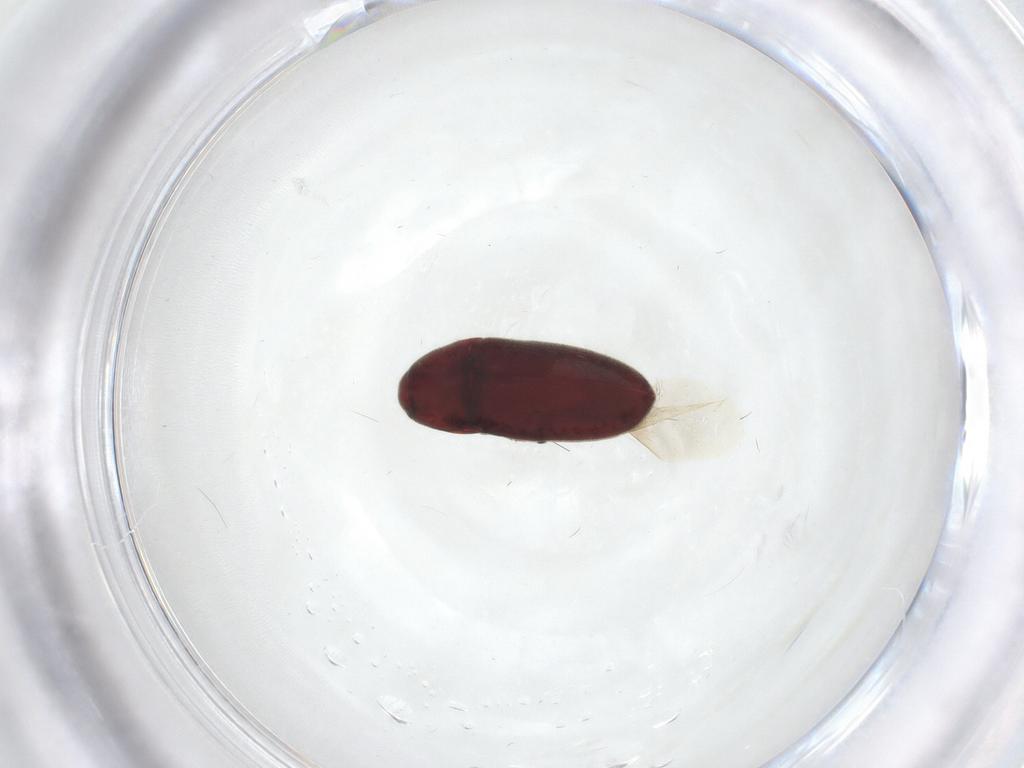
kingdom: Animalia
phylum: Arthropoda
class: Insecta
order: Coleoptera
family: Throscidae
